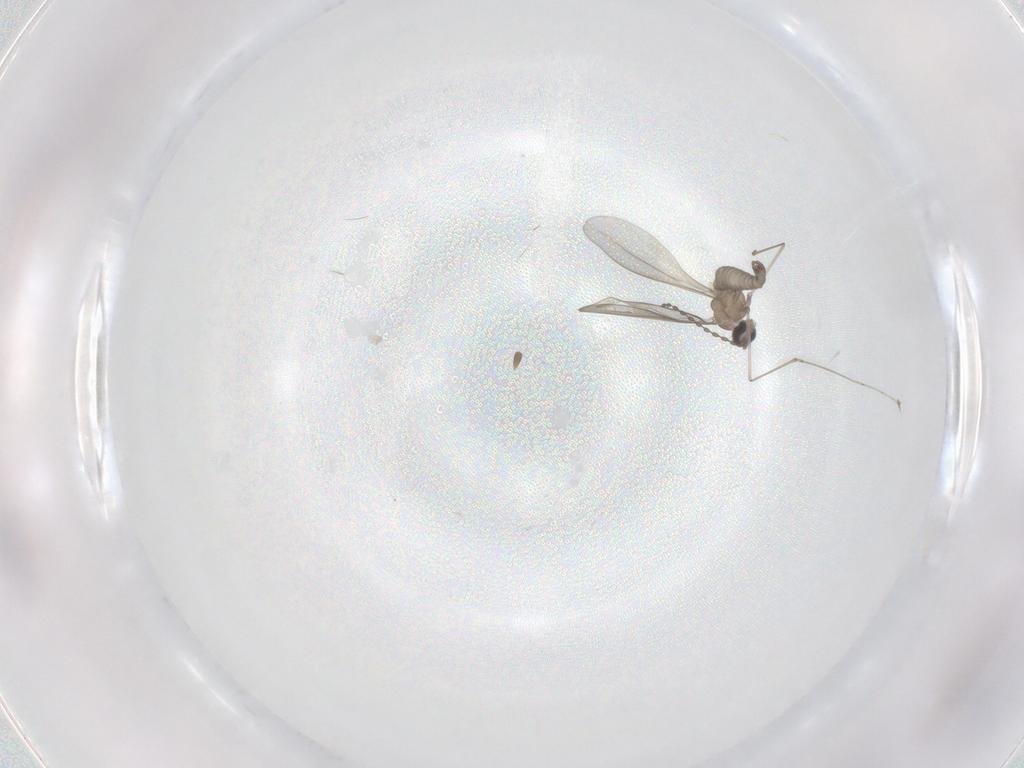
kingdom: Animalia
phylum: Arthropoda
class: Insecta
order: Diptera
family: Cecidomyiidae
